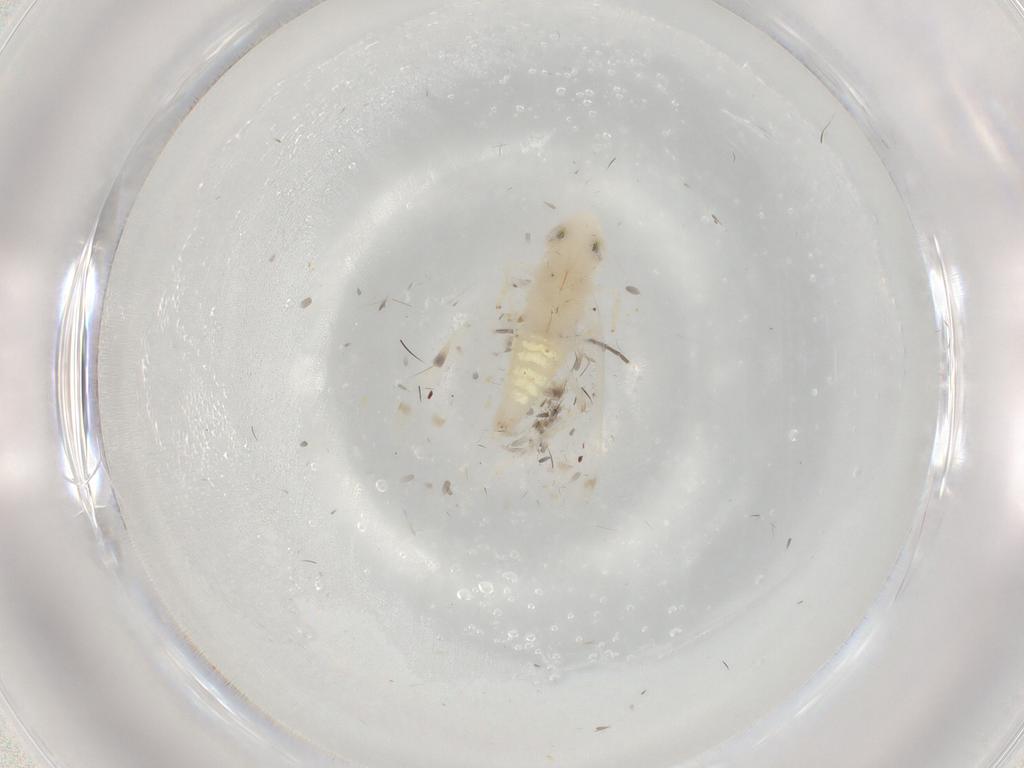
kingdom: Animalia
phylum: Arthropoda
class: Insecta
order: Hemiptera
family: Cicadellidae
